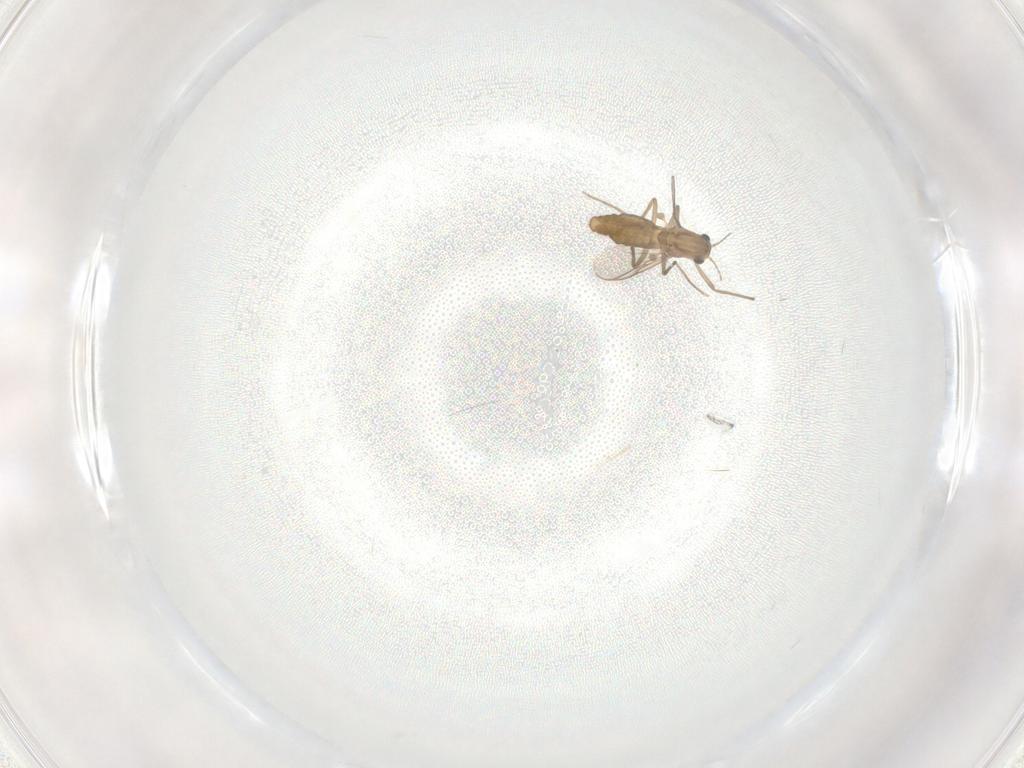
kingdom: Animalia
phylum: Arthropoda
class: Insecta
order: Diptera
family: Chironomidae
